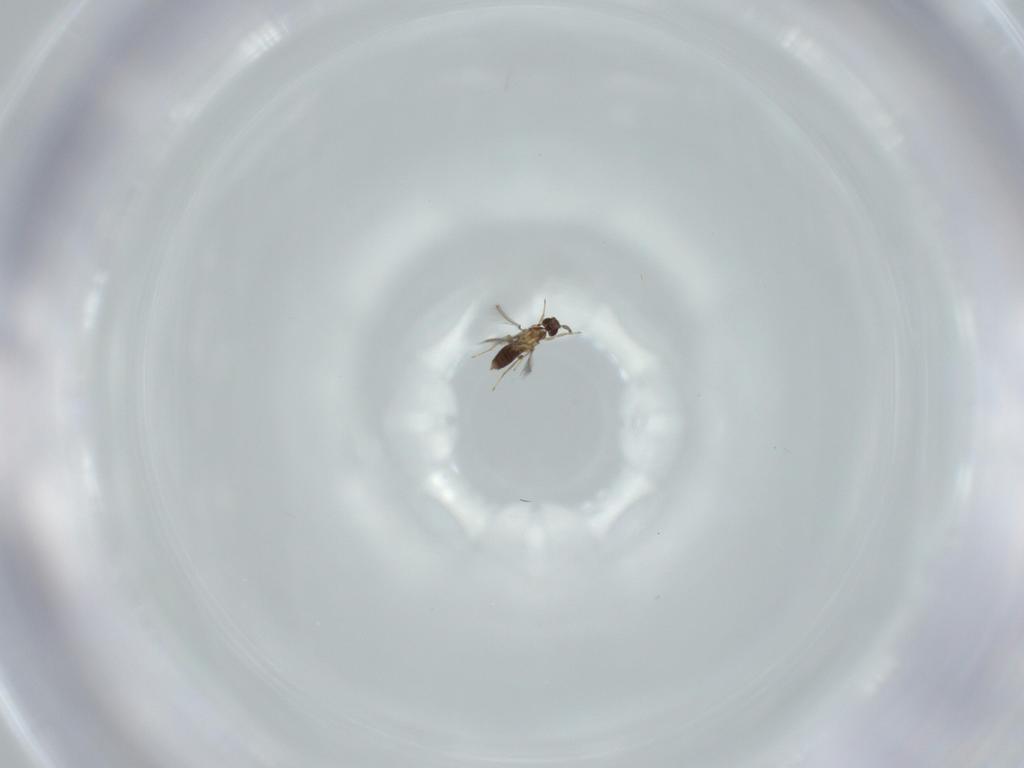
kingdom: Animalia
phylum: Arthropoda
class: Insecta
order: Hymenoptera
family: Mymaridae
